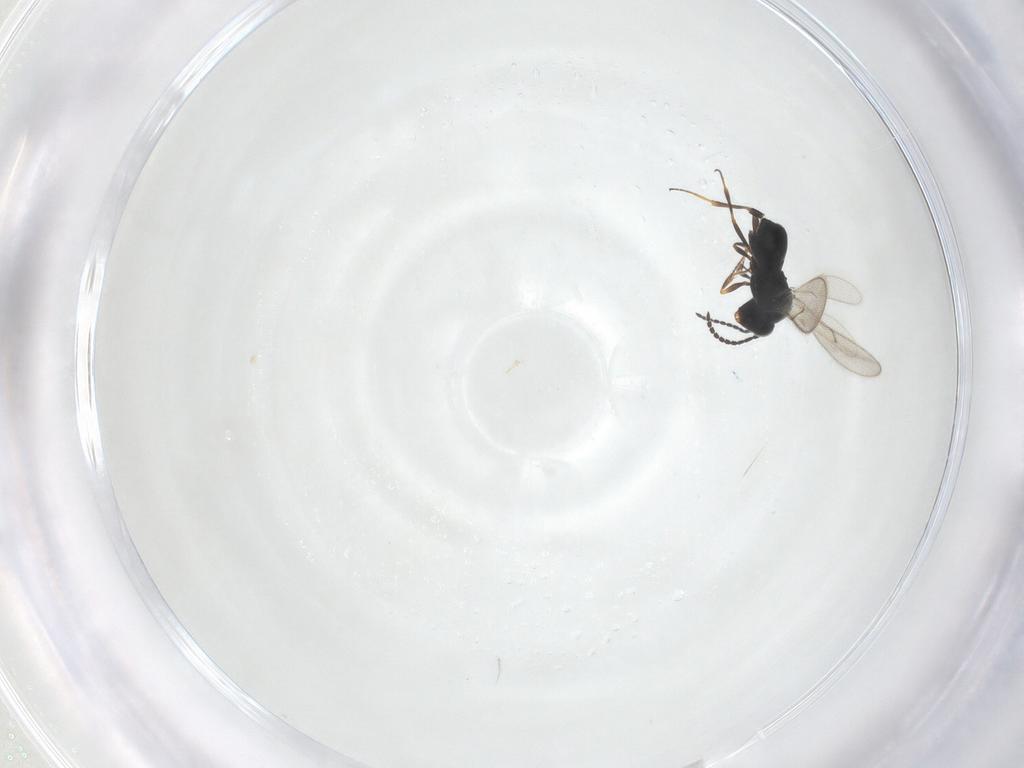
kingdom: Animalia
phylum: Arthropoda
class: Insecta
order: Hymenoptera
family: Scelionidae
